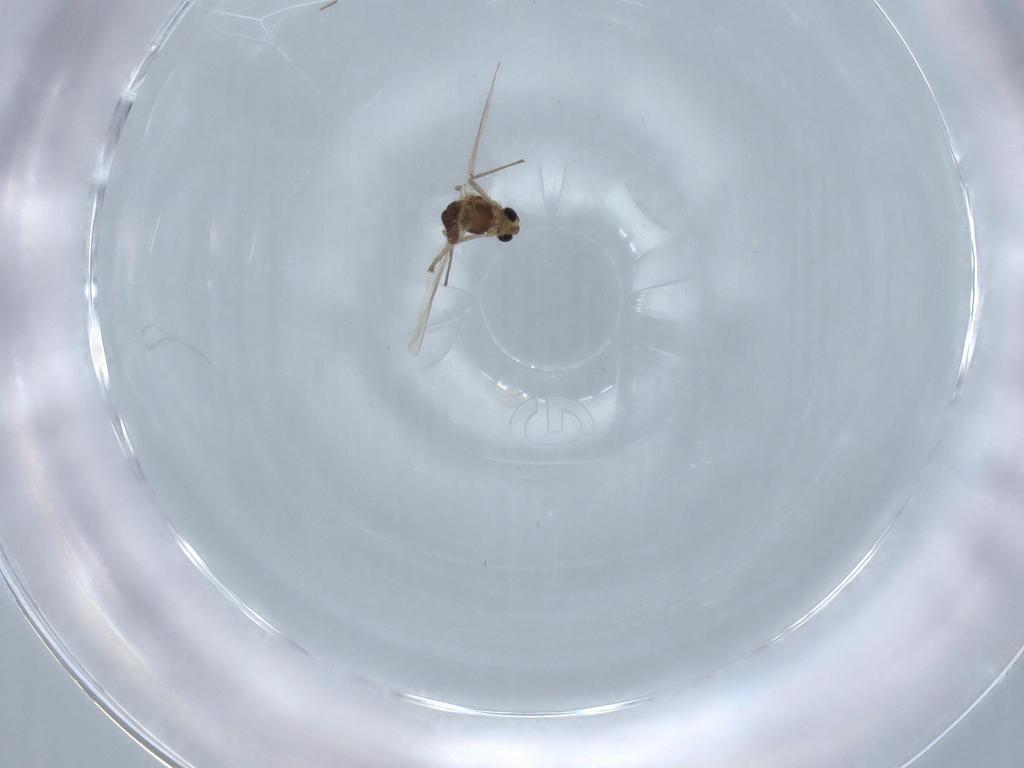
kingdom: Animalia
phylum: Arthropoda
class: Insecta
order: Diptera
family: Chironomidae
